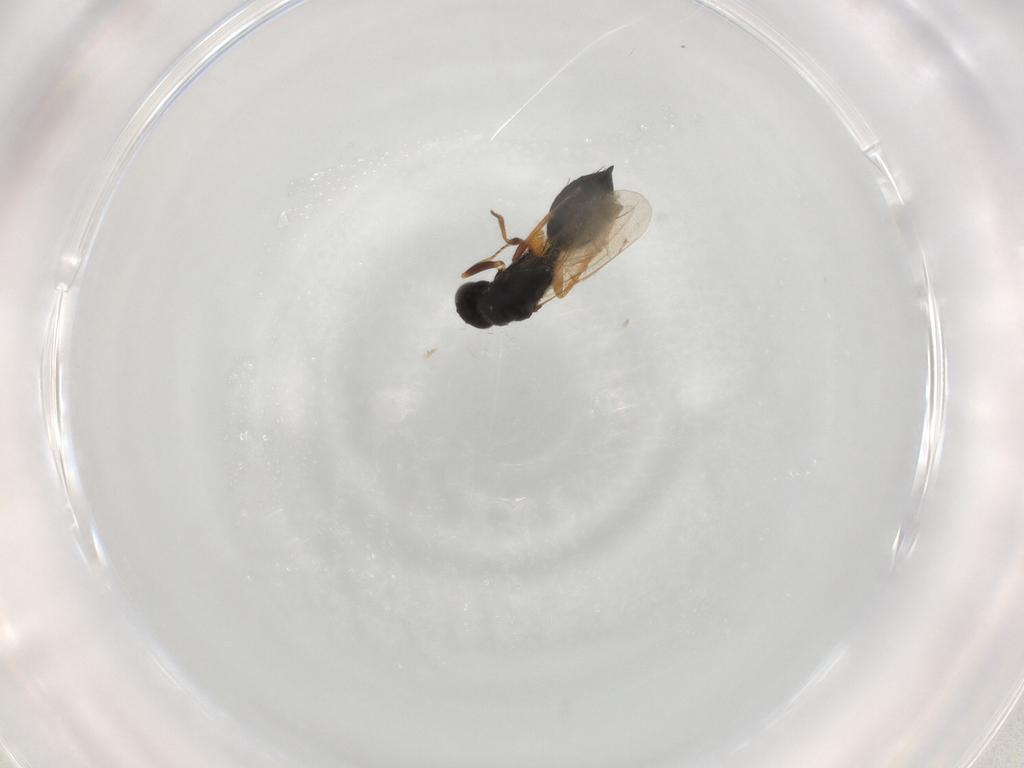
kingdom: Animalia
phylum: Arthropoda
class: Insecta
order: Hymenoptera
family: Eulophidae
